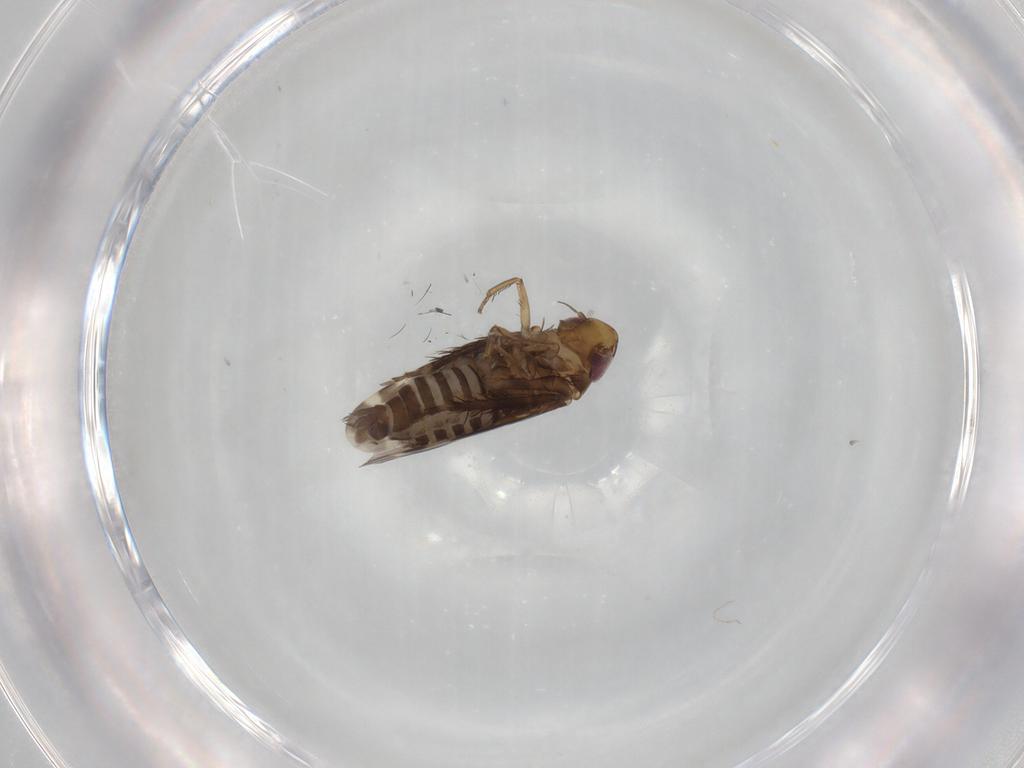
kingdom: Animalia
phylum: Arthropoda
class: Insecta
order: Hemiptera
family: Cicadellidae
